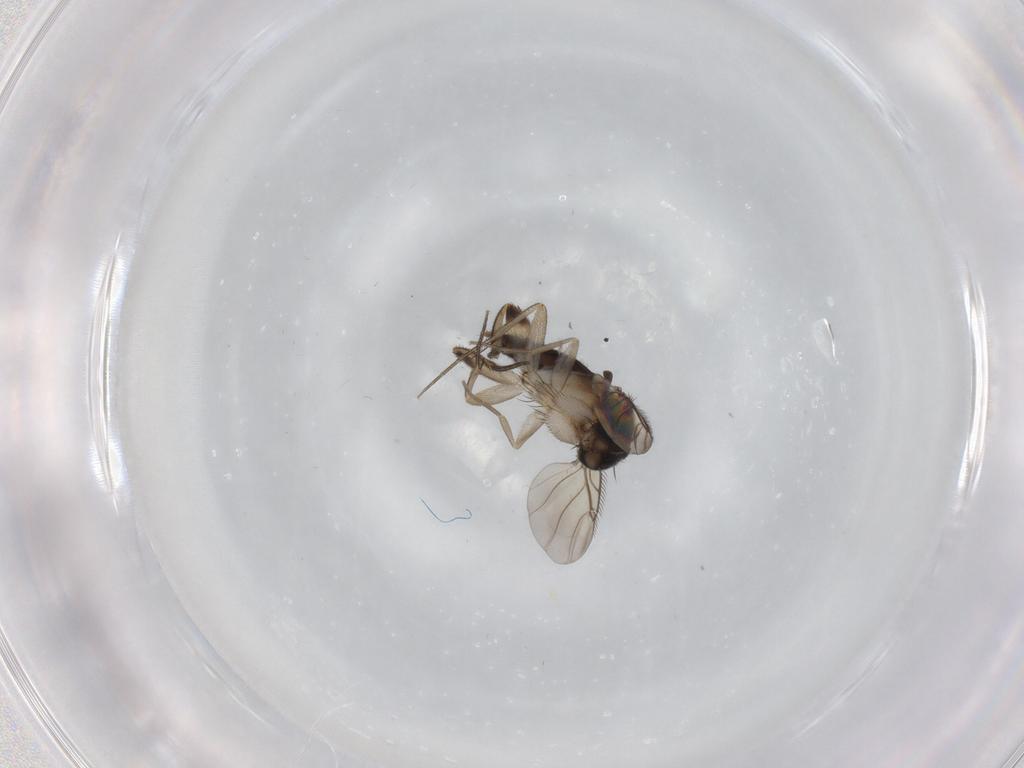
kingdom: Animalia
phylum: Arthropoda
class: Insecta
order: Diptera
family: Phoridae
